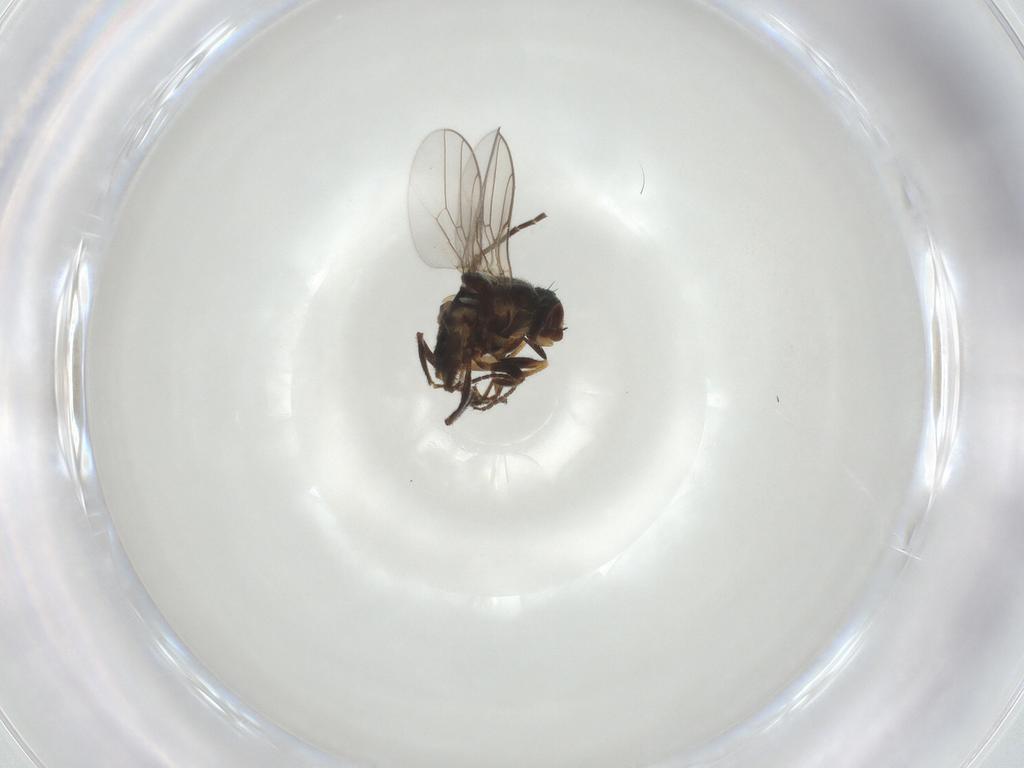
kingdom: Animalia
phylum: Arthropoda
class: Insecta
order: Diptera
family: Chloropidae
